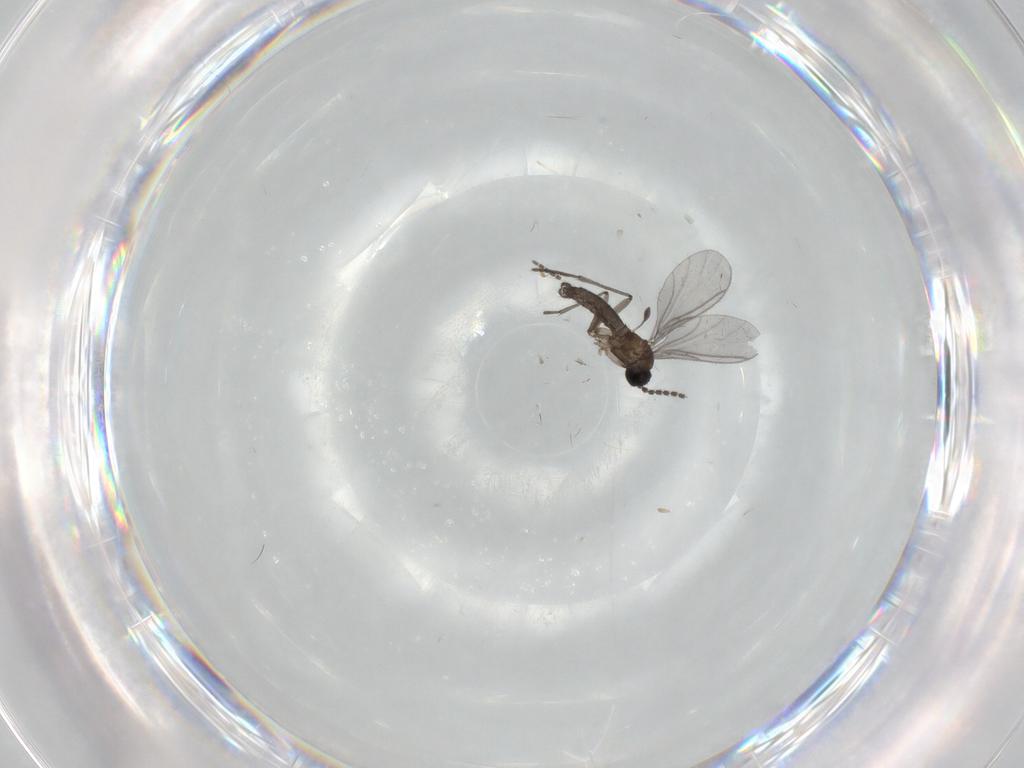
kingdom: Animalia
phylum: Arthropoda
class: Insecta
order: Diptera
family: Sciaridae
